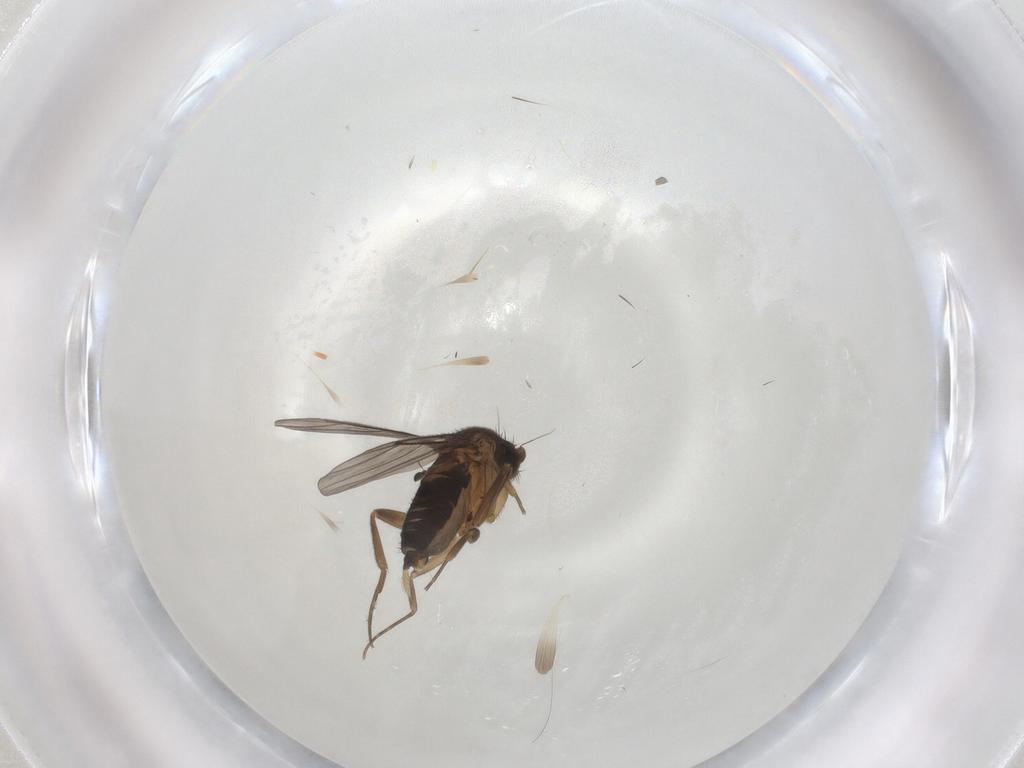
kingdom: Animalia
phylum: Arthropoda
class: Insecta
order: Diptera
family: Phoridae
